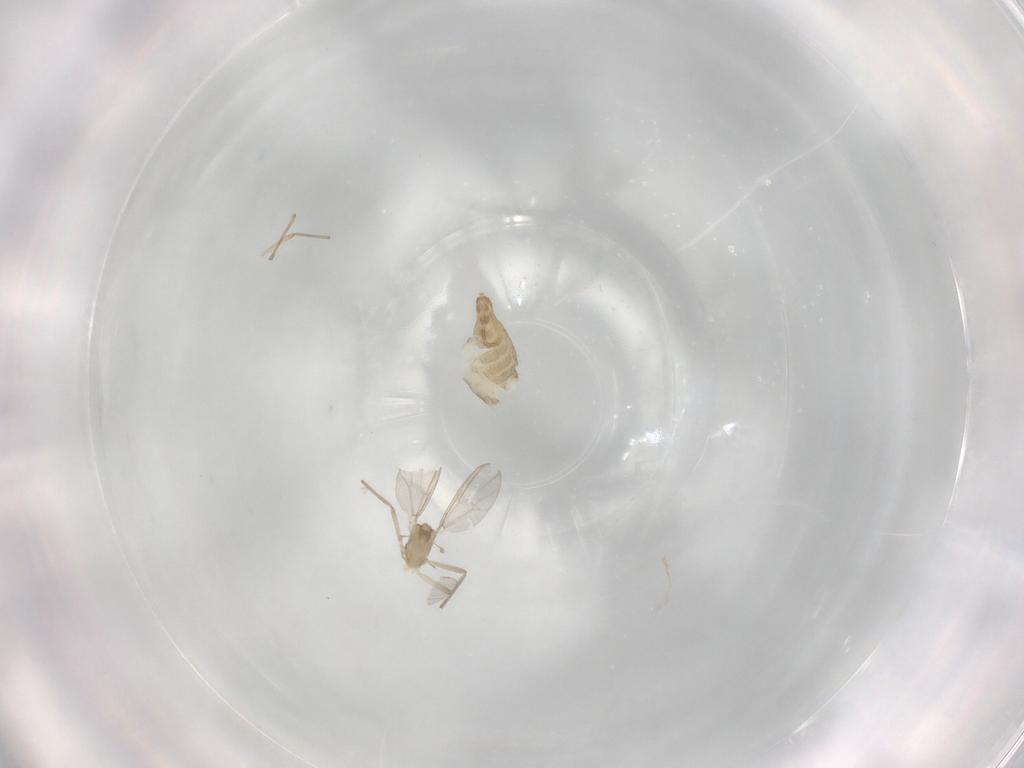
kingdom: Animalia
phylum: Arthropoda
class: Insecta
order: Diptera
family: Chironomidae
